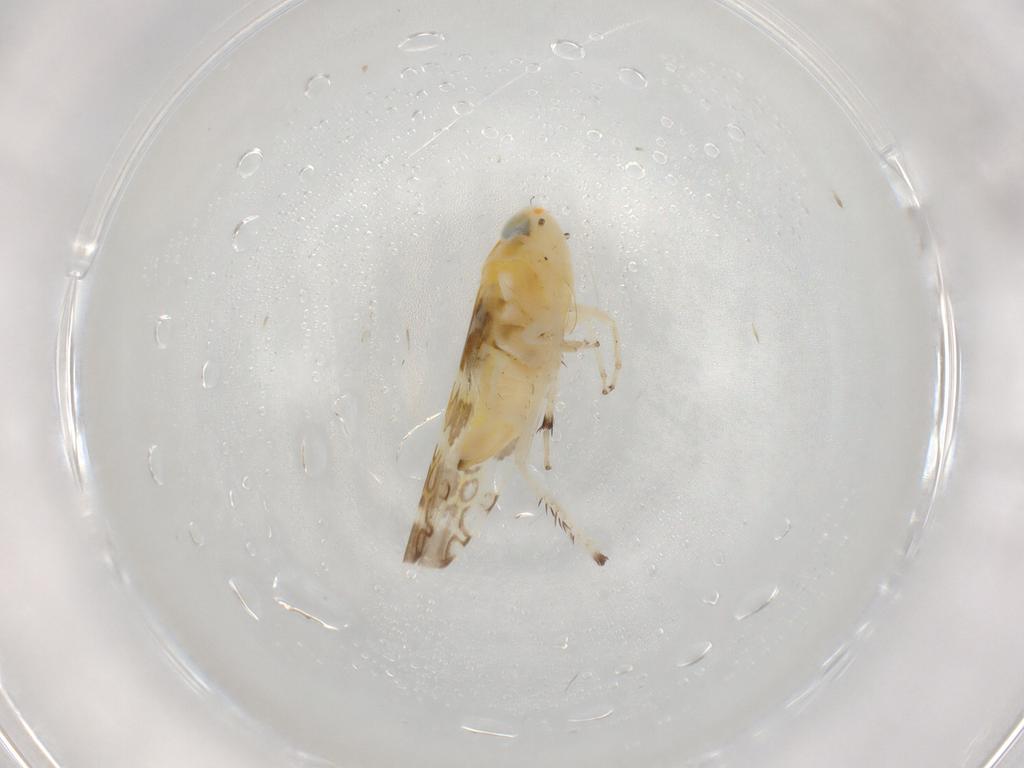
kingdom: Animalia
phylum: Arthropoda
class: Insecta
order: Hemiptera
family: Cicadellidae
